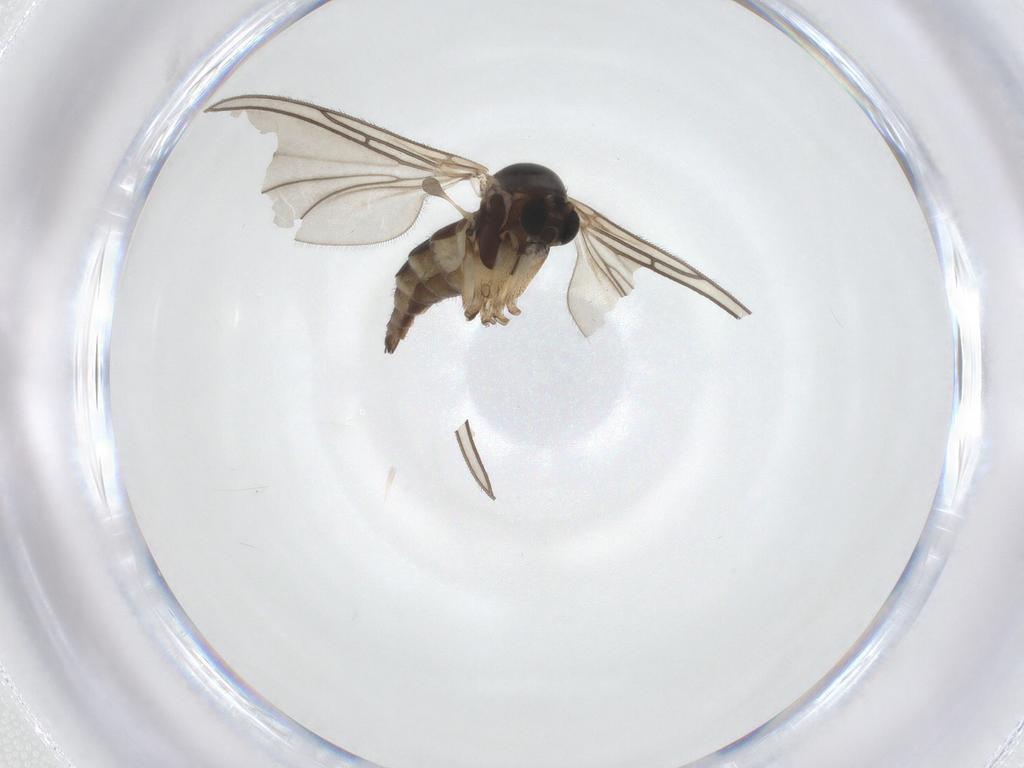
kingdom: Animalia
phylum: Arthropoda
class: Insecta
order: Diptera
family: Sciaridae
